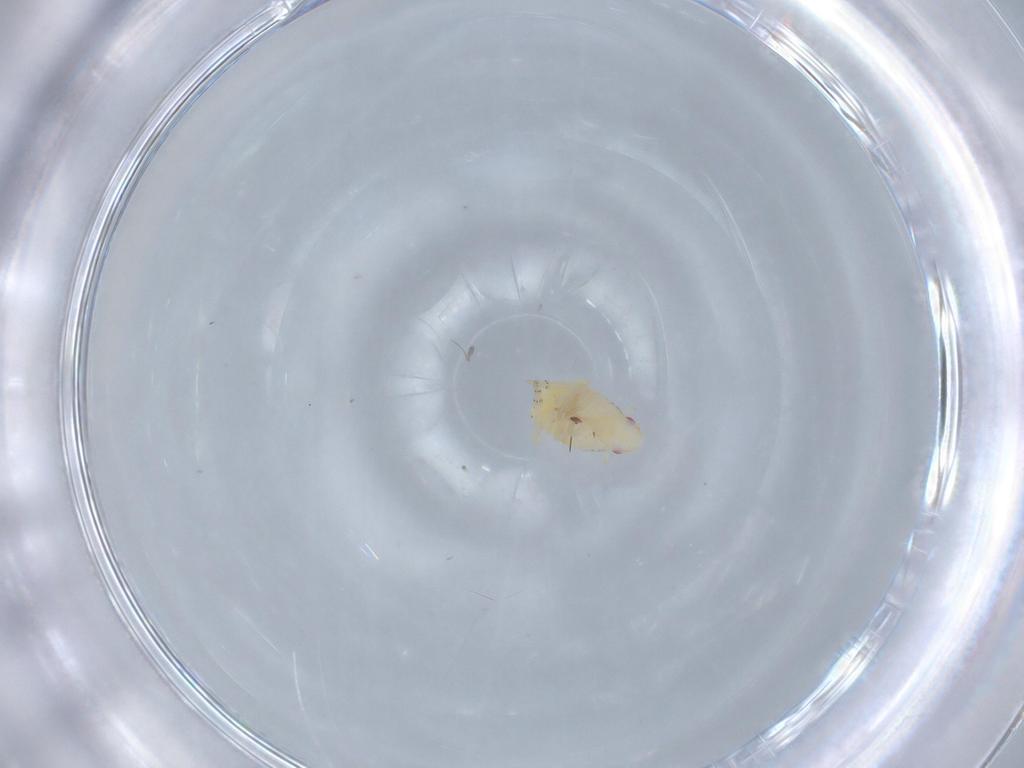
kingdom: Animalia
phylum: Arthropoda
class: Insecta
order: Hemiptera
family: Flatidae
